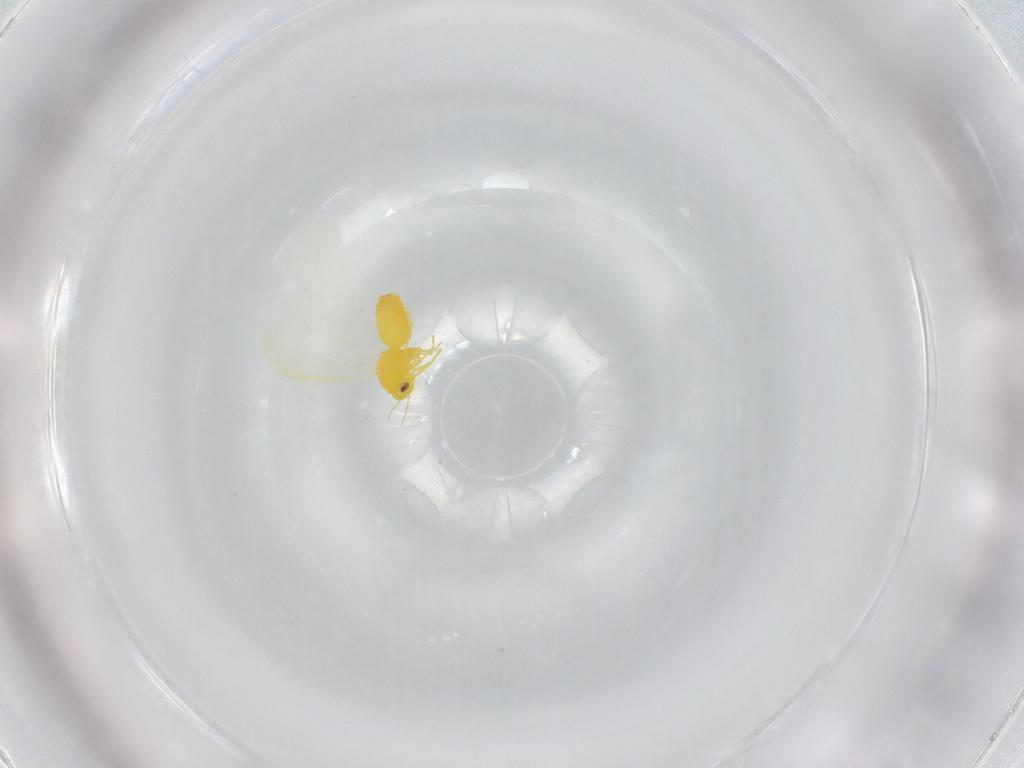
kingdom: Animalia
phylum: Arthropoda
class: Insecta
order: Hemiptera
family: Aleyrodidae
